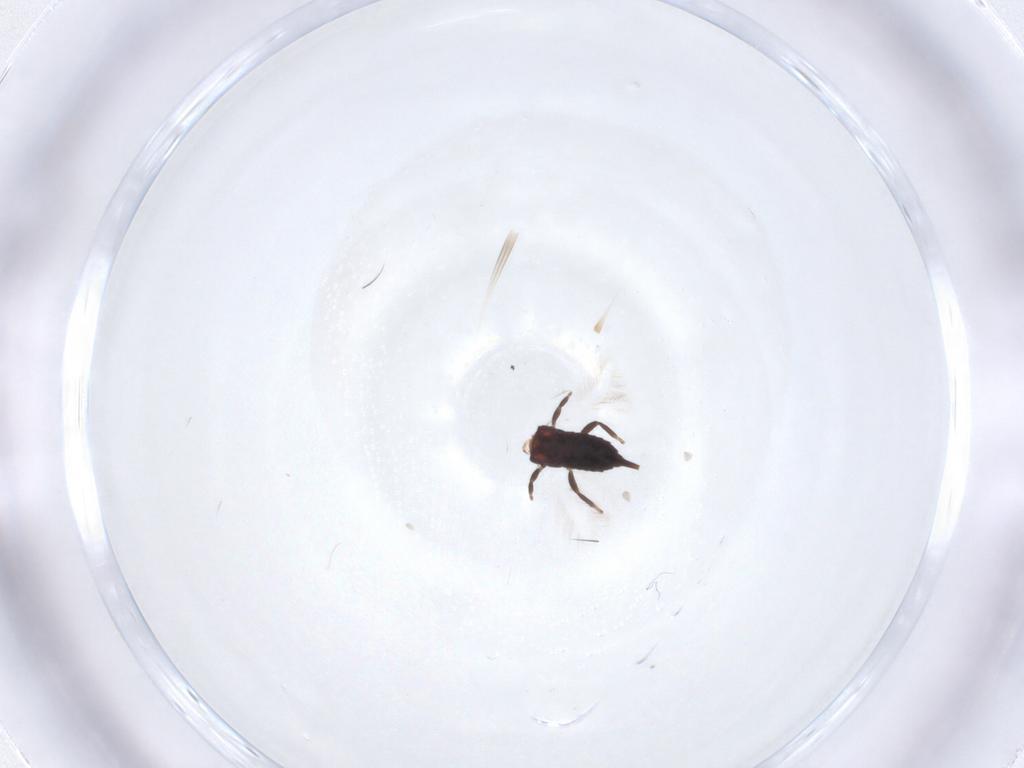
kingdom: Animalia
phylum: Arthropoda
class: Insecta
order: Thysanoptera
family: Phlaeothripidae
